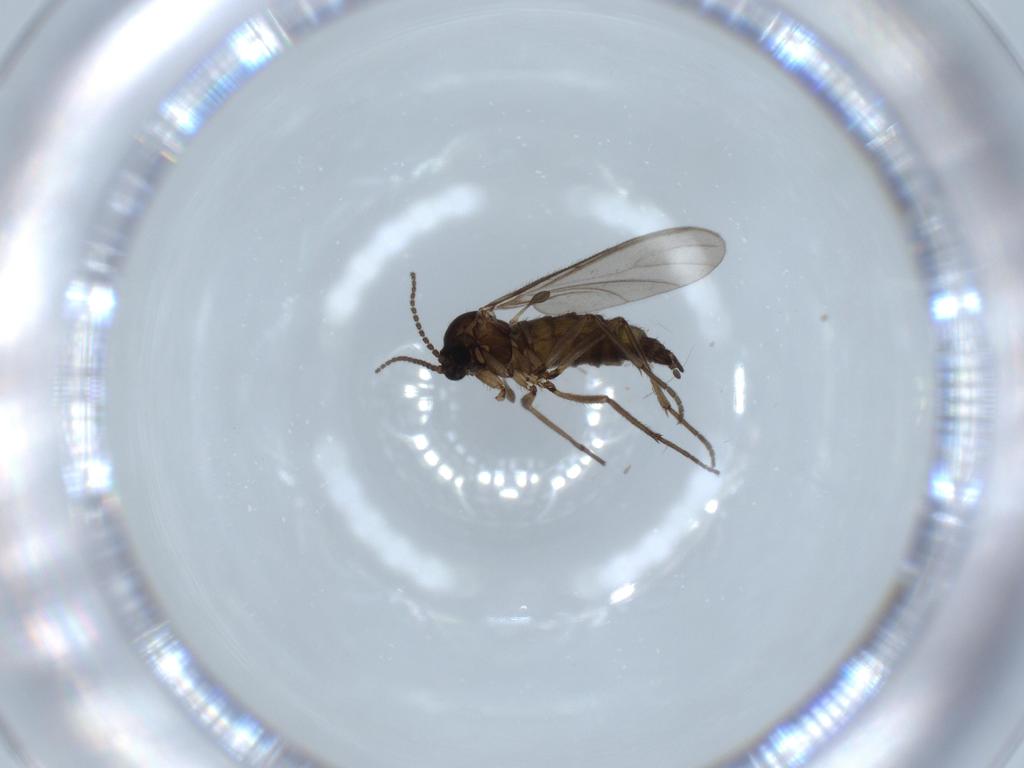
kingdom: Animalia
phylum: Arthropoda
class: Insecta
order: Diptera
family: Sciaridae
